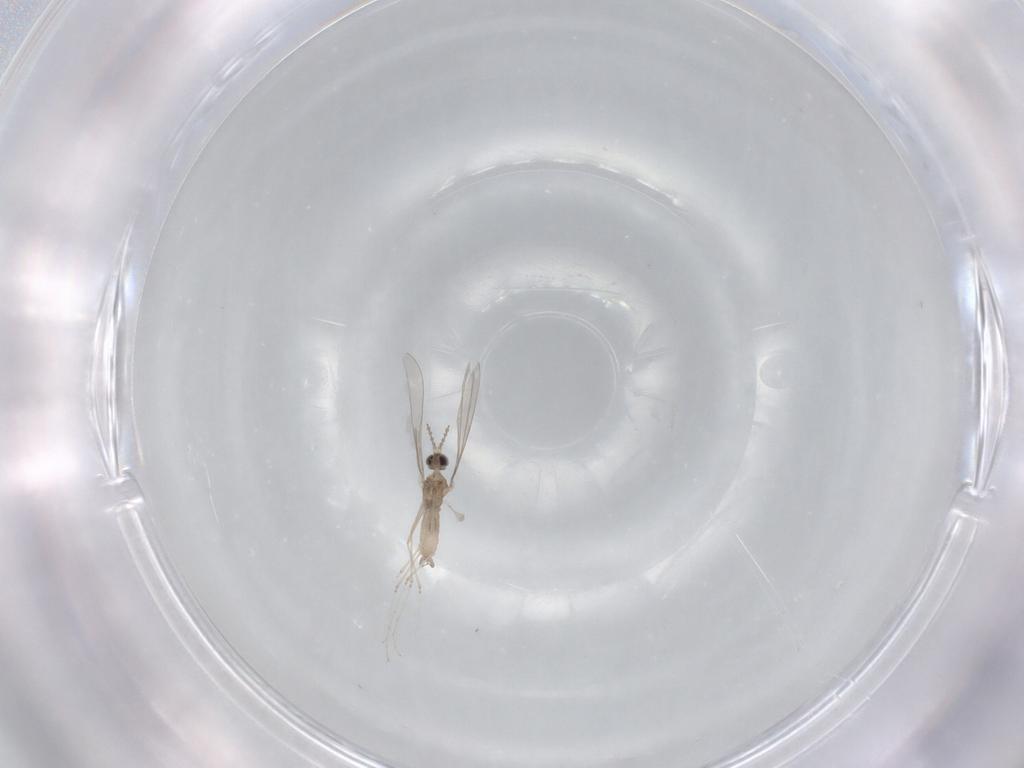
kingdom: Animalia
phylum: Arthropoda
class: Insecta
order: Diptera
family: Cecidomyiidae
